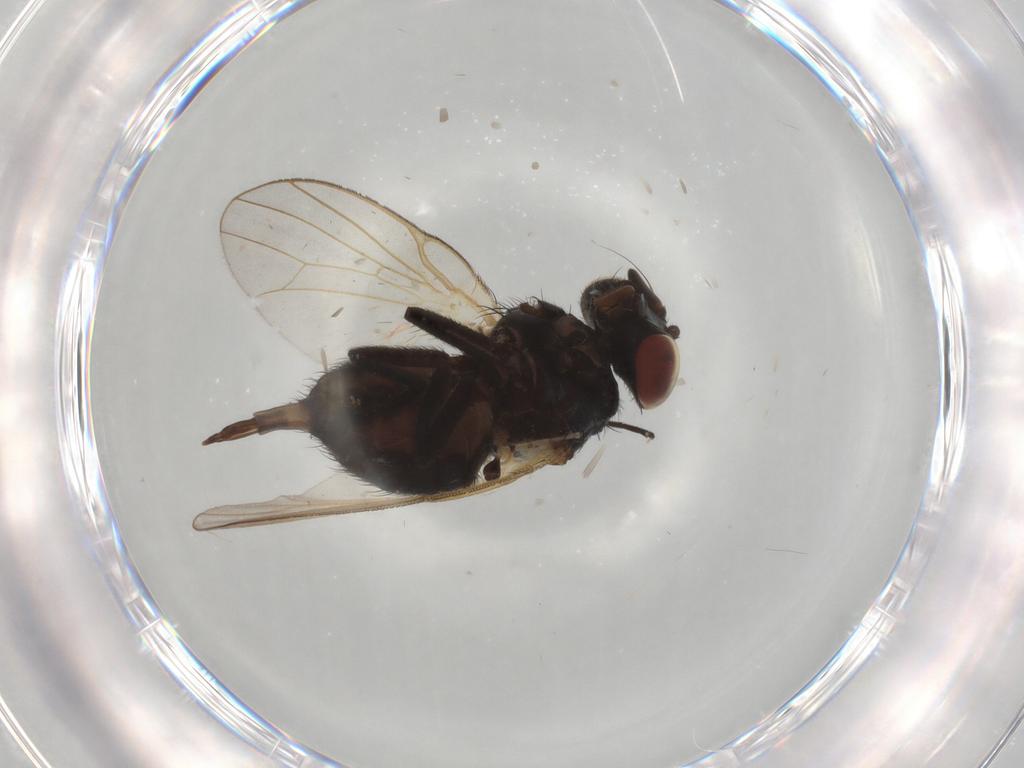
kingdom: Animalia
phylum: Arthropoda
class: Insecta
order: Diptera
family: Dolichopodidae
